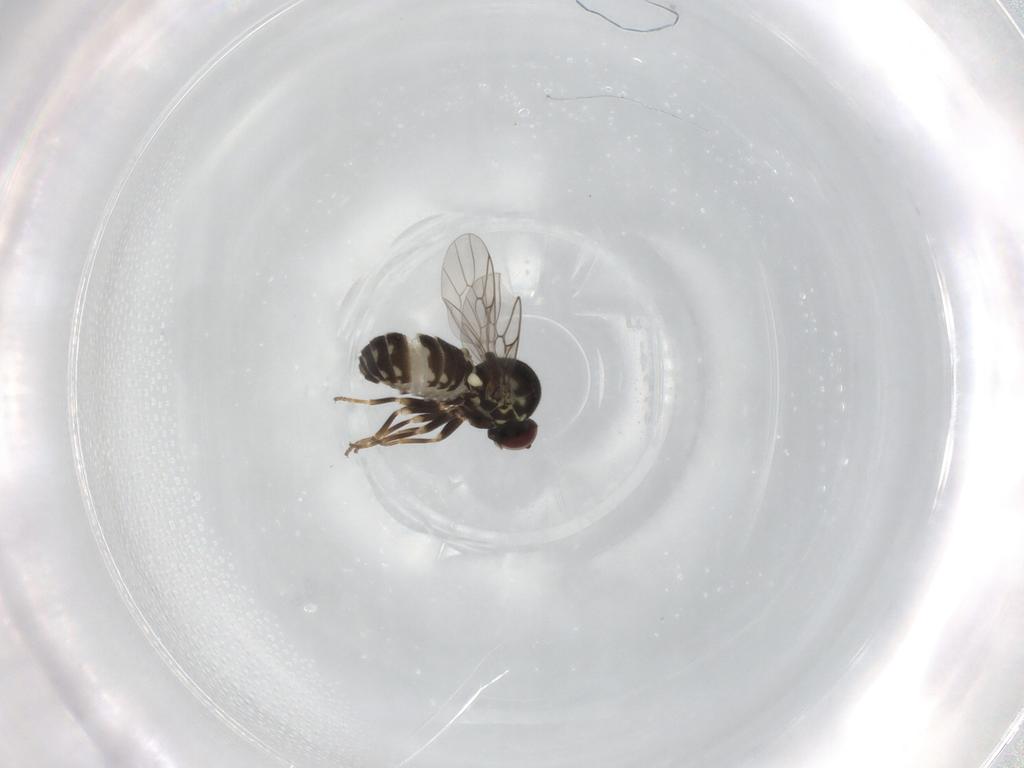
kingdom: Animalia
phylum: Arthropoda
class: Insecta
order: Diptera
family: Bombyliidae
